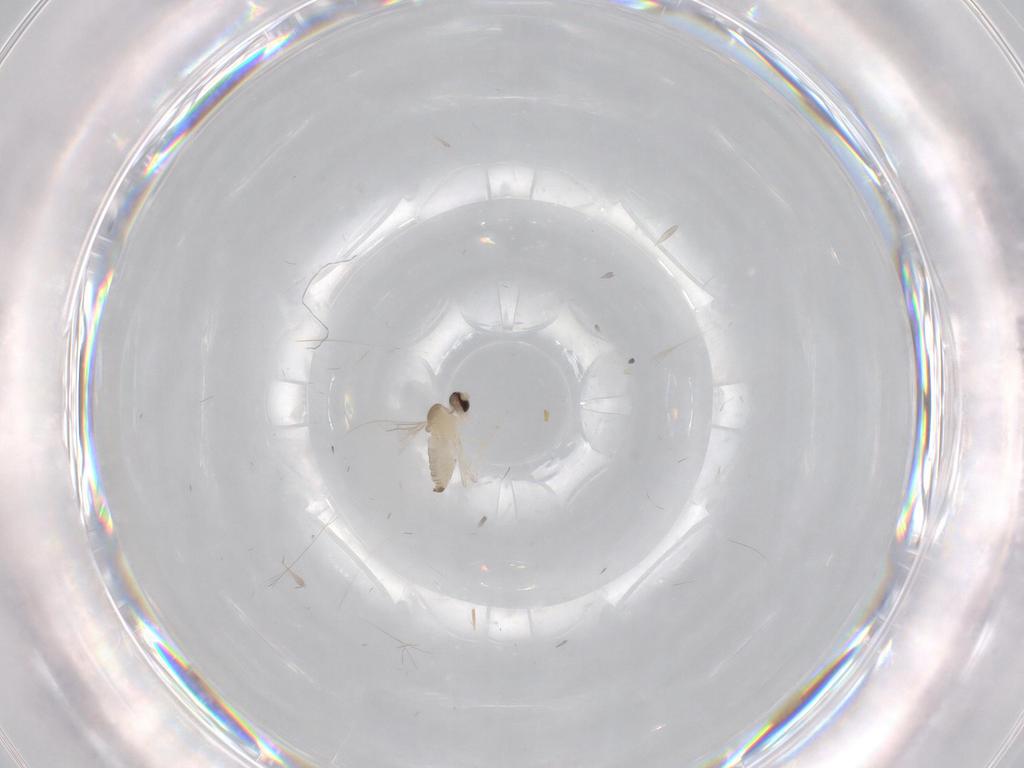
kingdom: Animalia
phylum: Arthropoda
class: Insecta
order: Diptera
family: Cecidomyiidae
